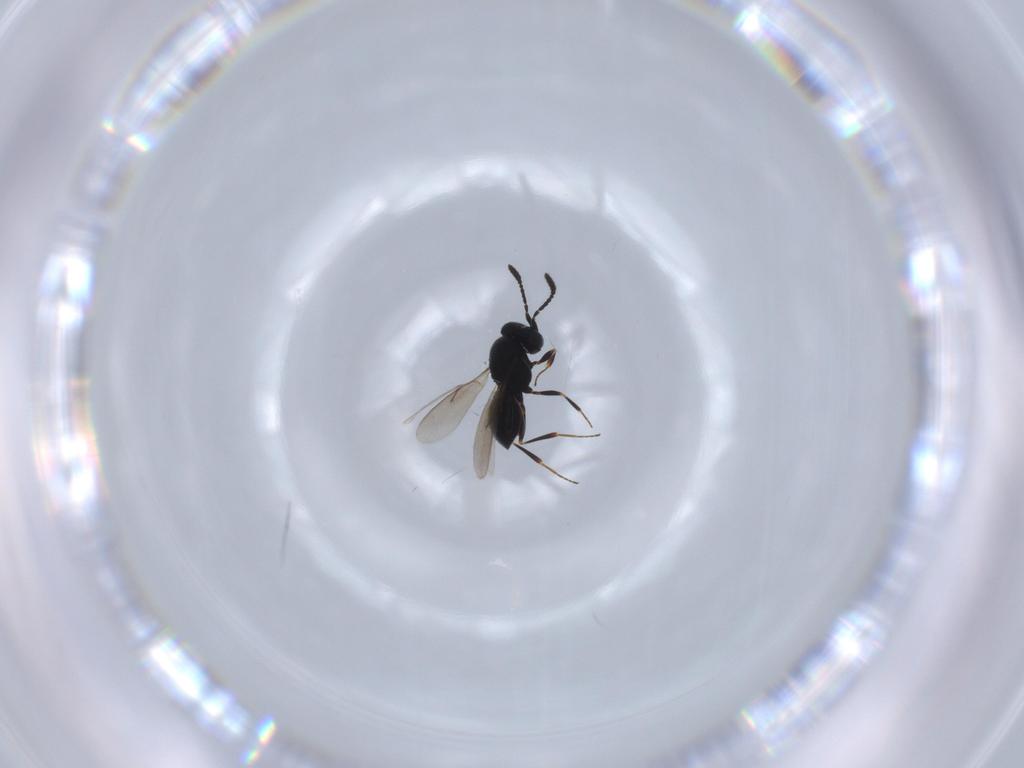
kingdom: Animalia
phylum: Arthropoda
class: Insecta
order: Hymenoptera
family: Scelionidae
